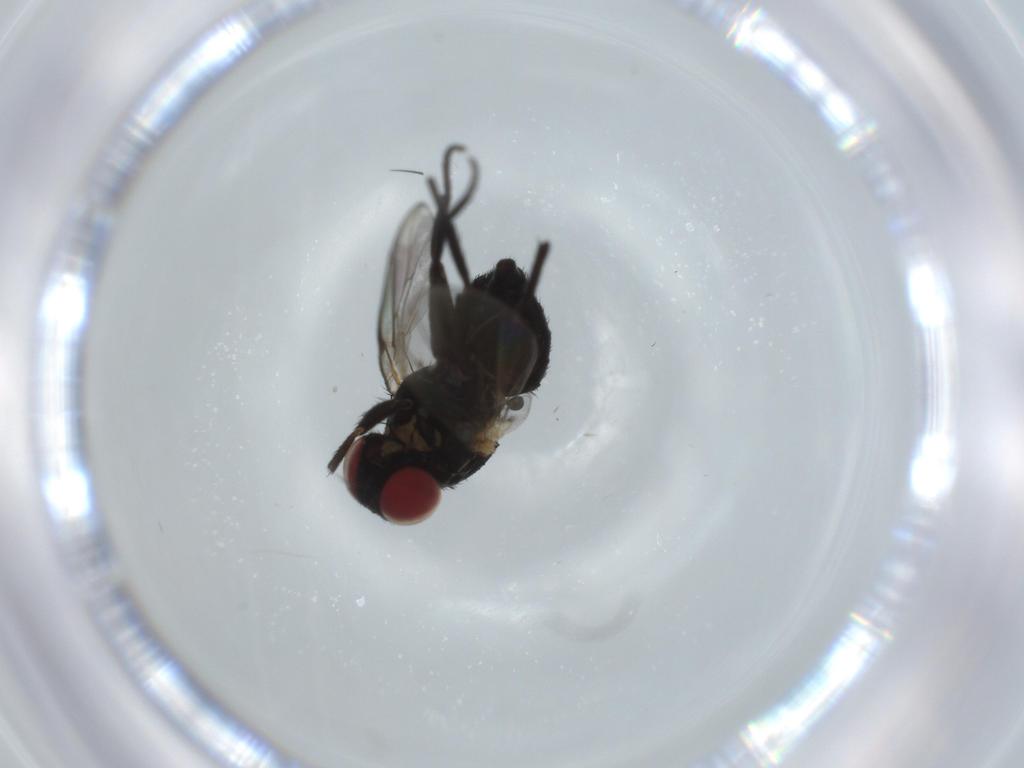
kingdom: Animalia
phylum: Arthropoda
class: Insecta
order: Diptera
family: Agromyzidae
